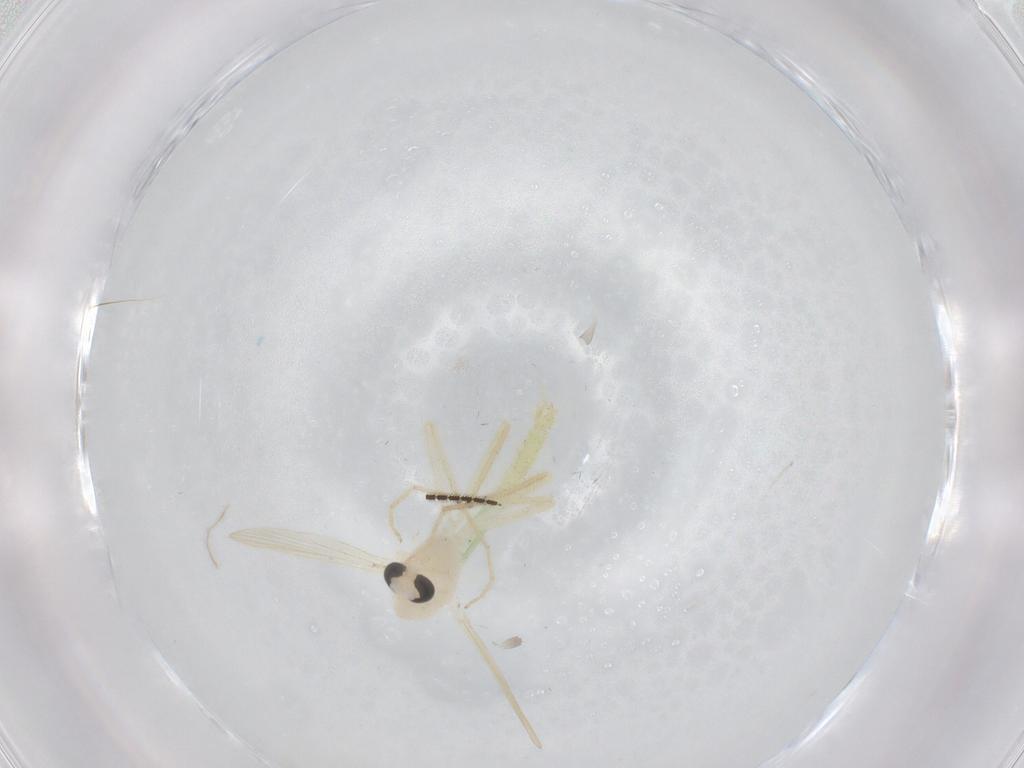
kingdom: Animalia
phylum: Arthropoda
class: Insecta
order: Diptera
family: Chironomidae
